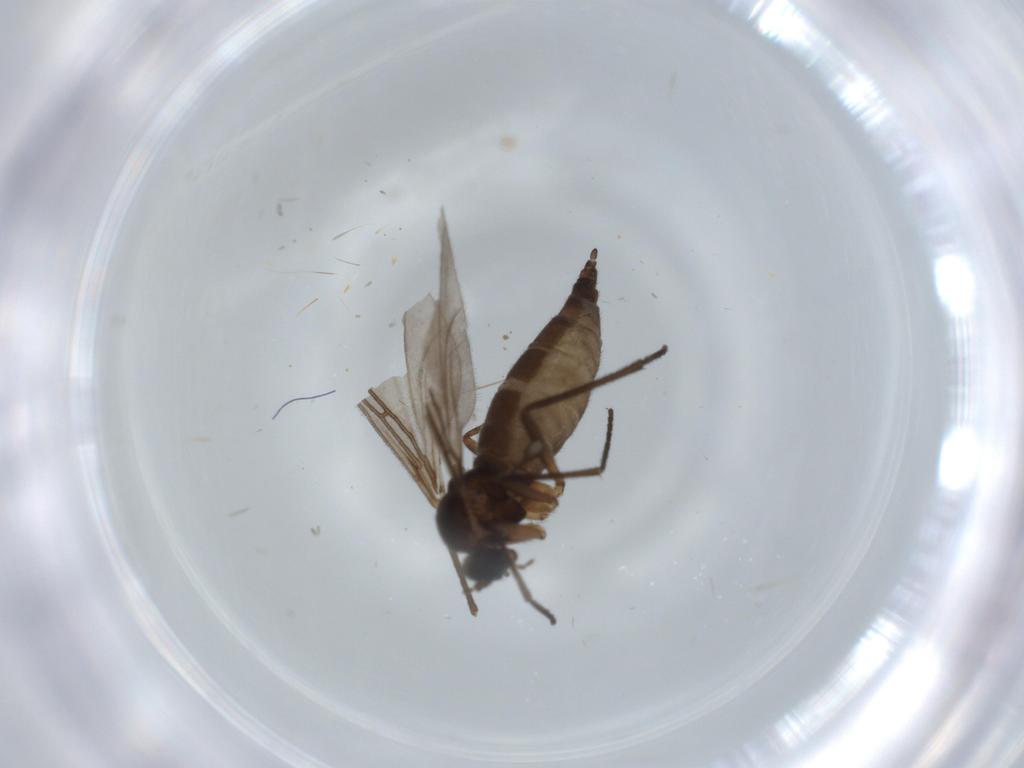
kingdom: Animalia
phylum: Arthropoda
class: Insecta
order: Diptera
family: Sciaridae
